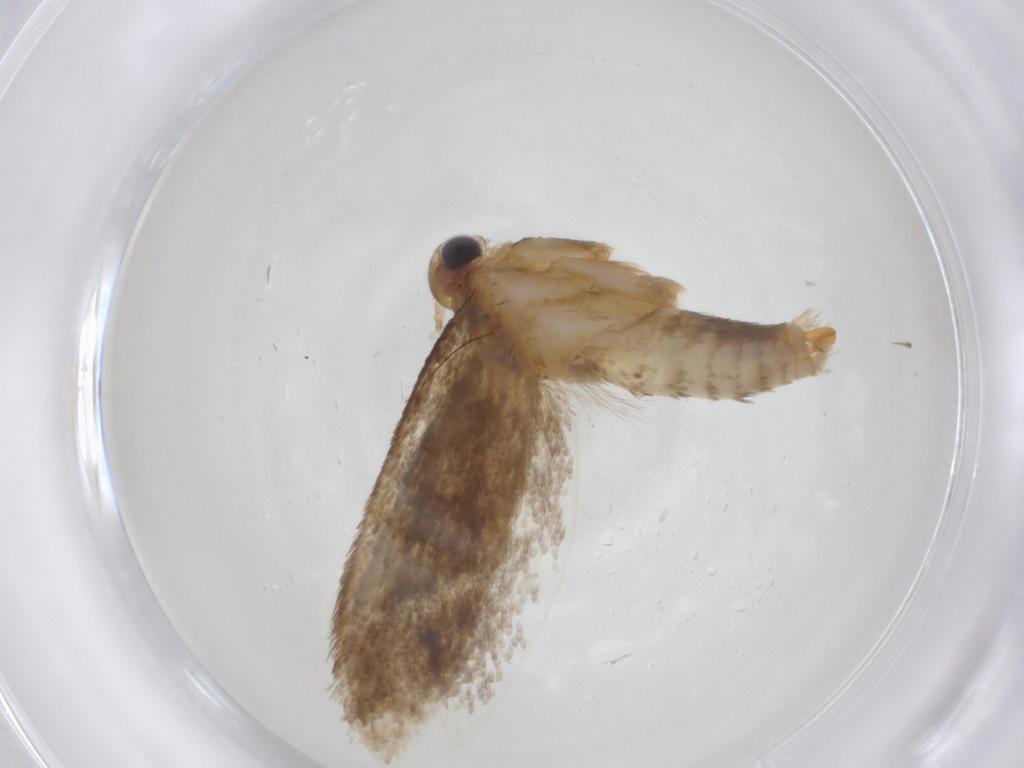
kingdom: Animalia
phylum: Arthropoda
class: Insecta
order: Lepidoptera
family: Tineidae
